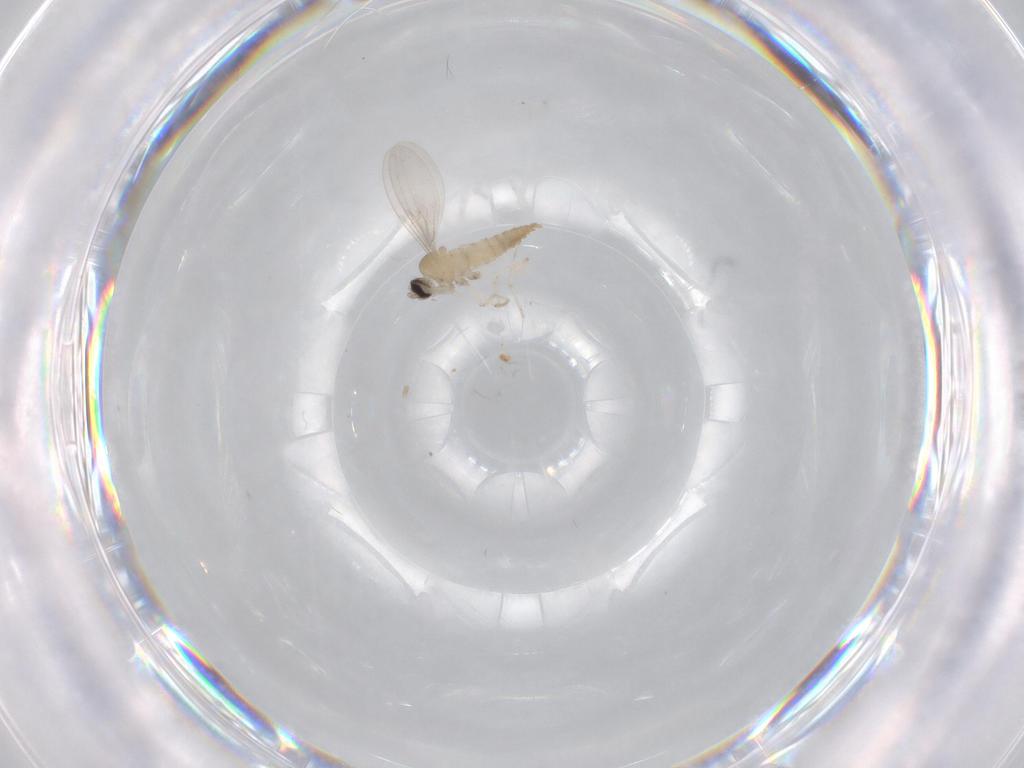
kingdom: Animalia
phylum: Arthropoda
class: Insecta
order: Diptera
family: Cecidomyiidae
